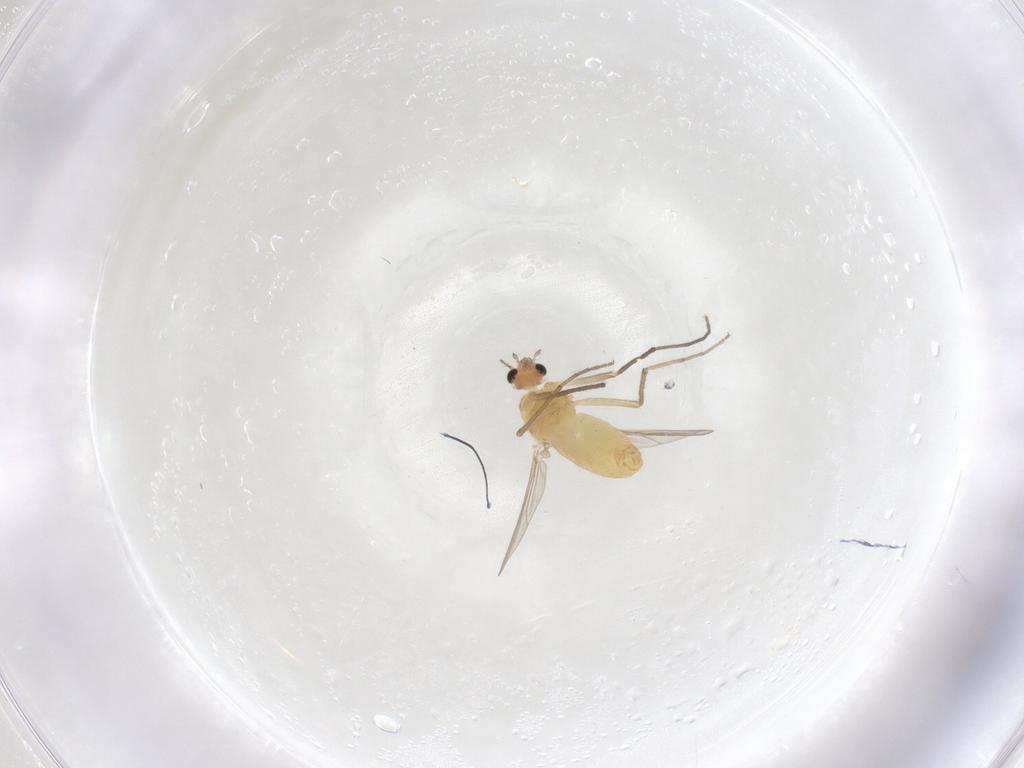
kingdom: Animalia
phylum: Arthropoda
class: Insecta
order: Diptera
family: Chironomidae
